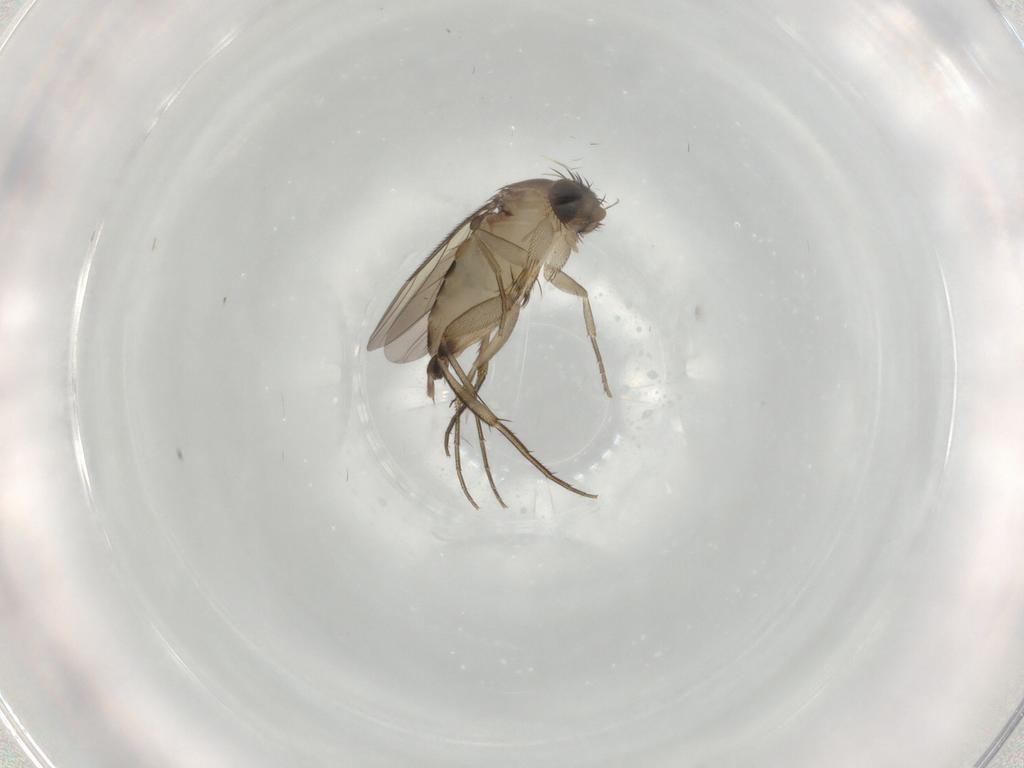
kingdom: Animalia
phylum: Arthropoda
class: Insecta
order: Diptera
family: Phoridae
